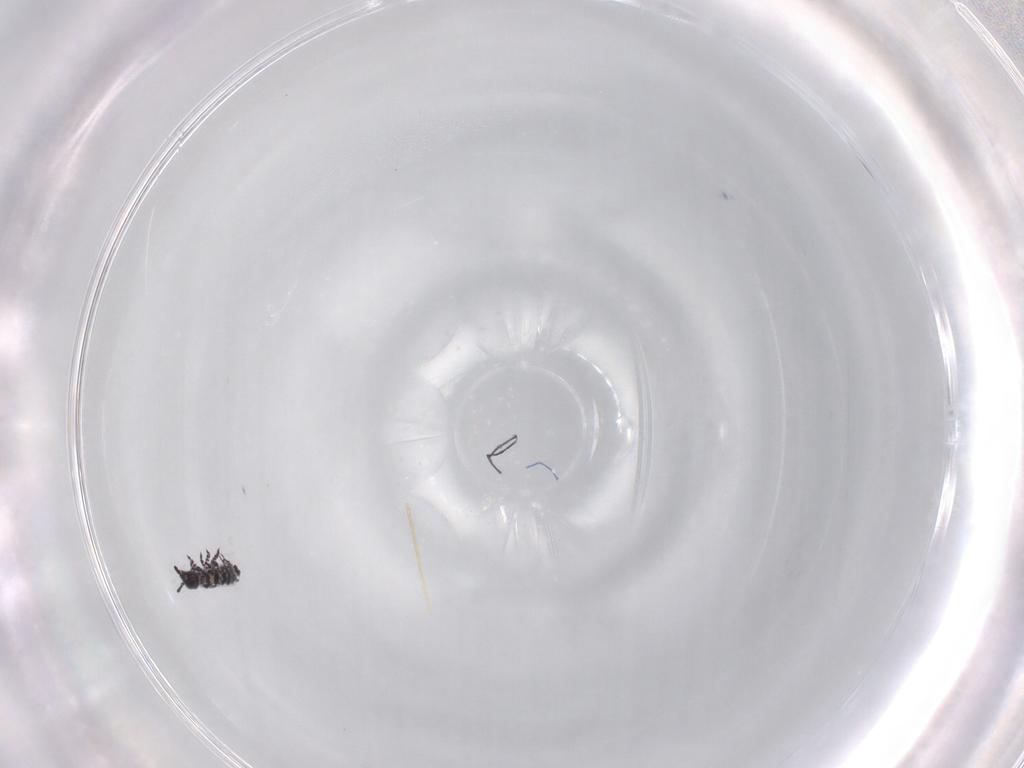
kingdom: Animalia
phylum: Arthropoda
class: Collembola
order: Poduromorpha
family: Hypogastruridae
